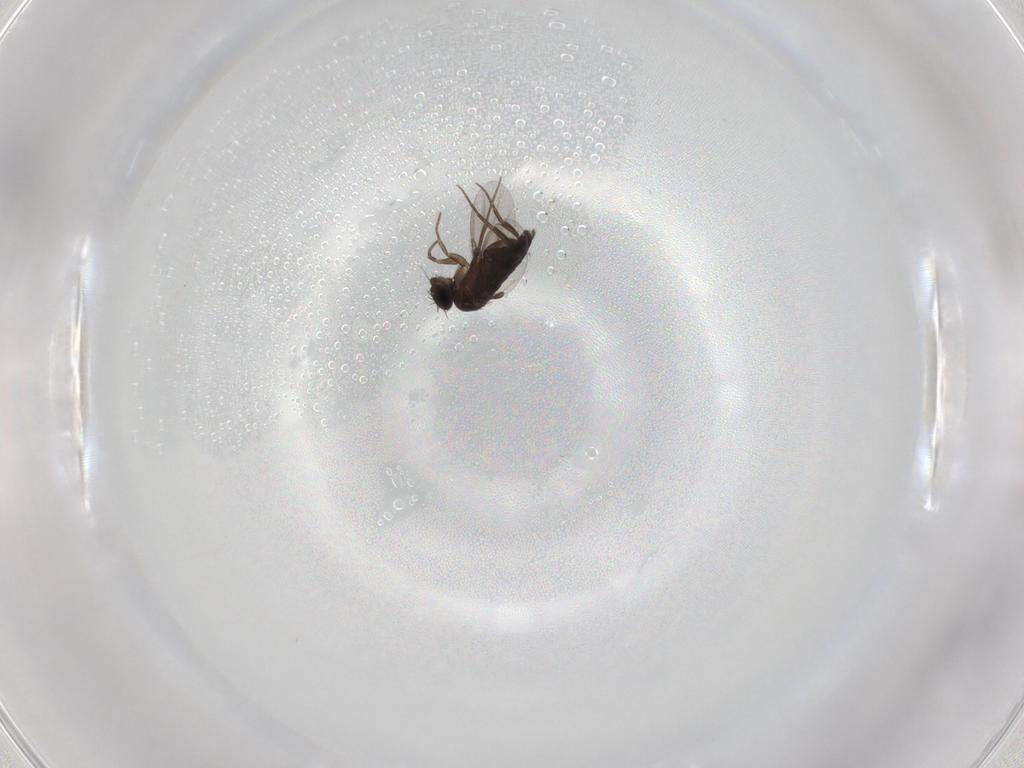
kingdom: Animalia
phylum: Arthropoda
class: Insecta
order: Diptera
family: Phoridae
